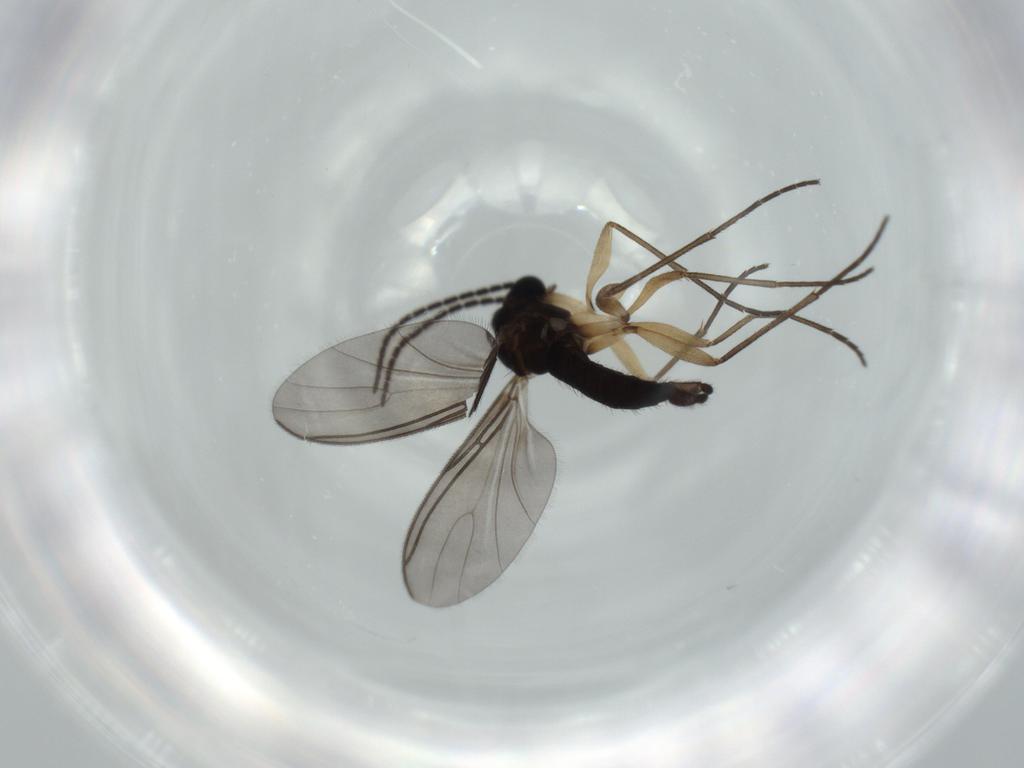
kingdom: Animalia
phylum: Arthropoda
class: Insecta
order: Diptera
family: Sciaridae
